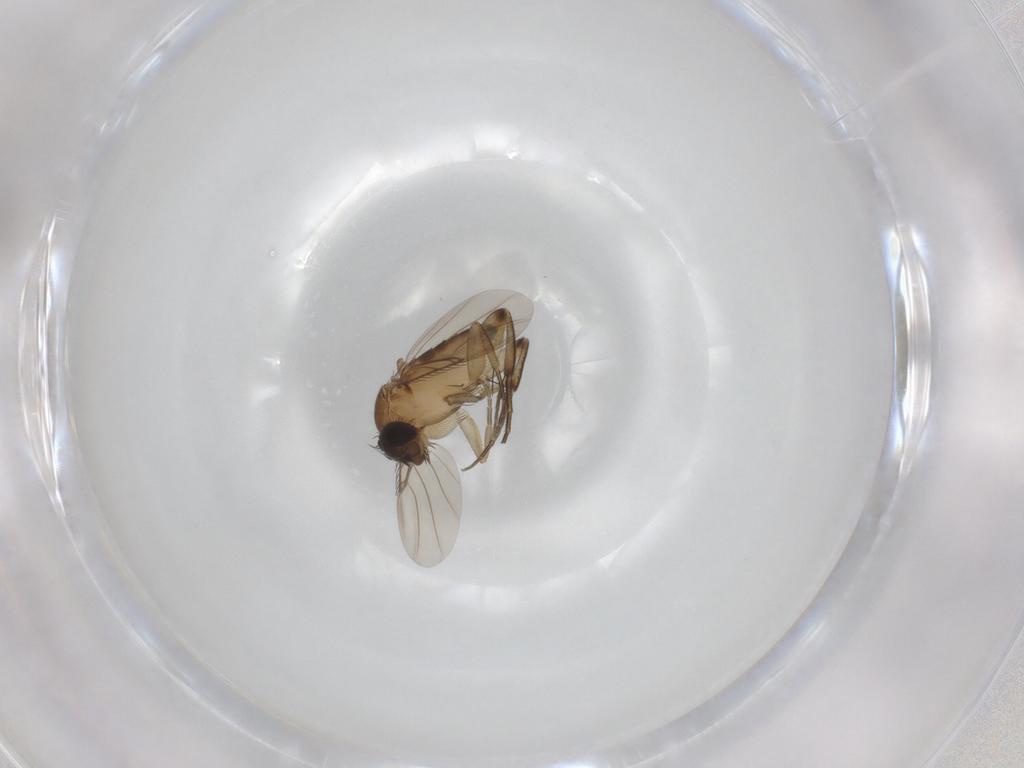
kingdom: Animalia
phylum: Arthropoda
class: Insecta
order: Diptera
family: Phoridae
